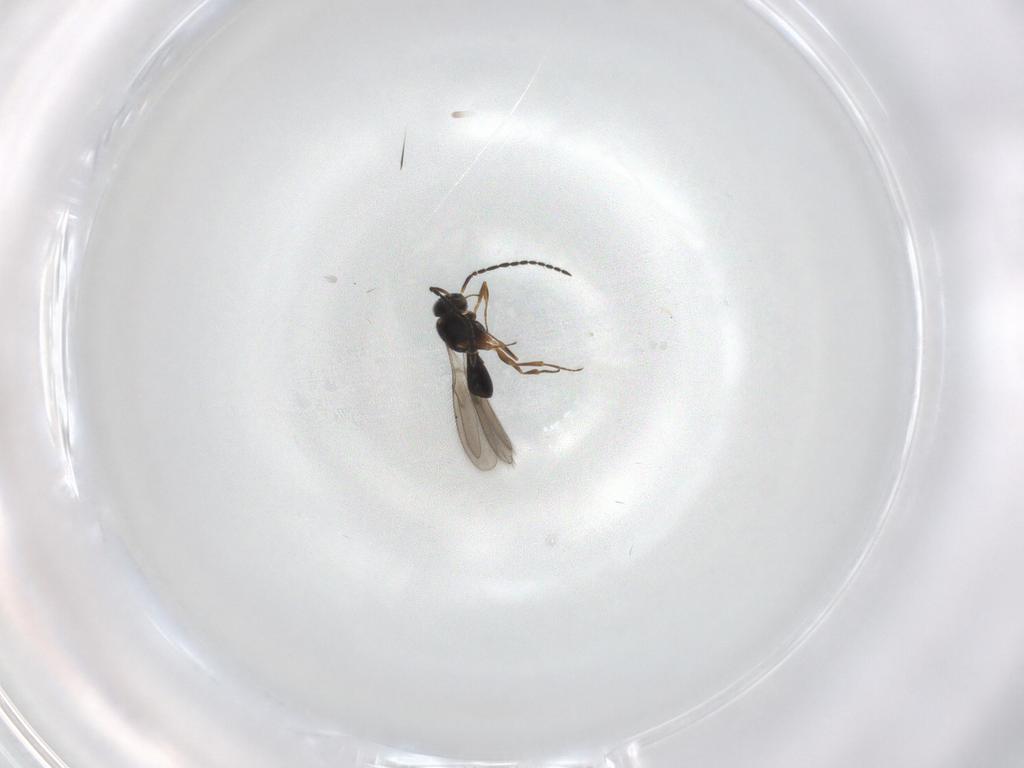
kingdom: Animalia
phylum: Arthropoda
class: Insecta
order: Hymenoptera
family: Scelionidae
